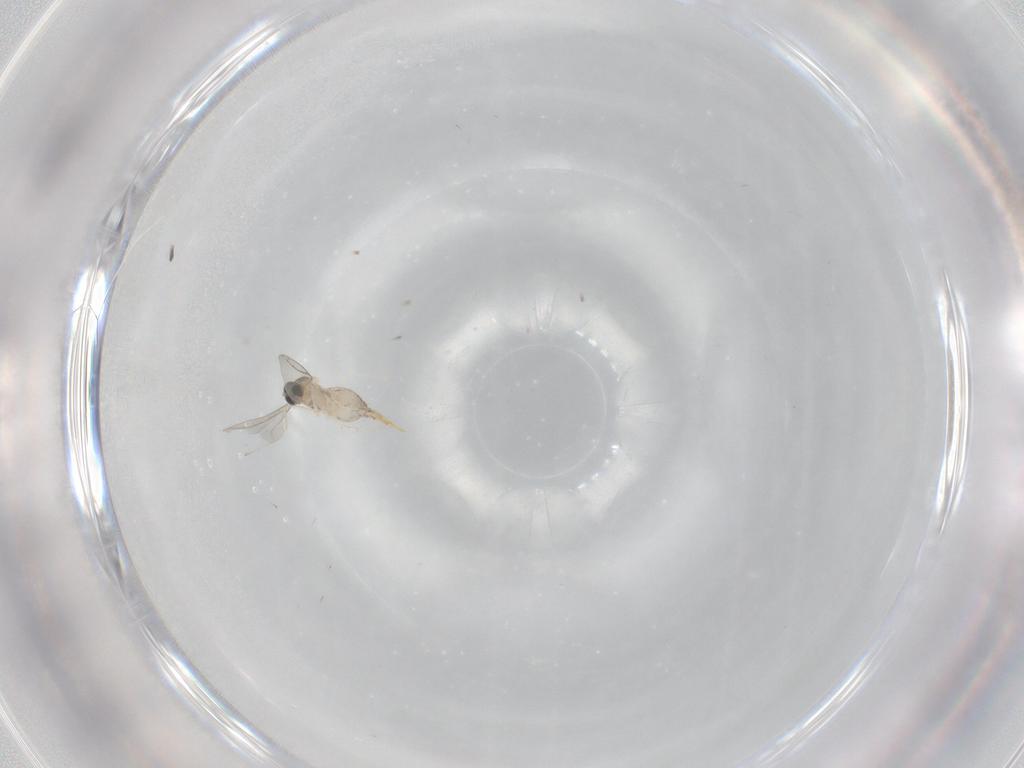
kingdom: Animalia
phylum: Arthropoda
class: Insecta
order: Diptera
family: Cecidomyiidae
